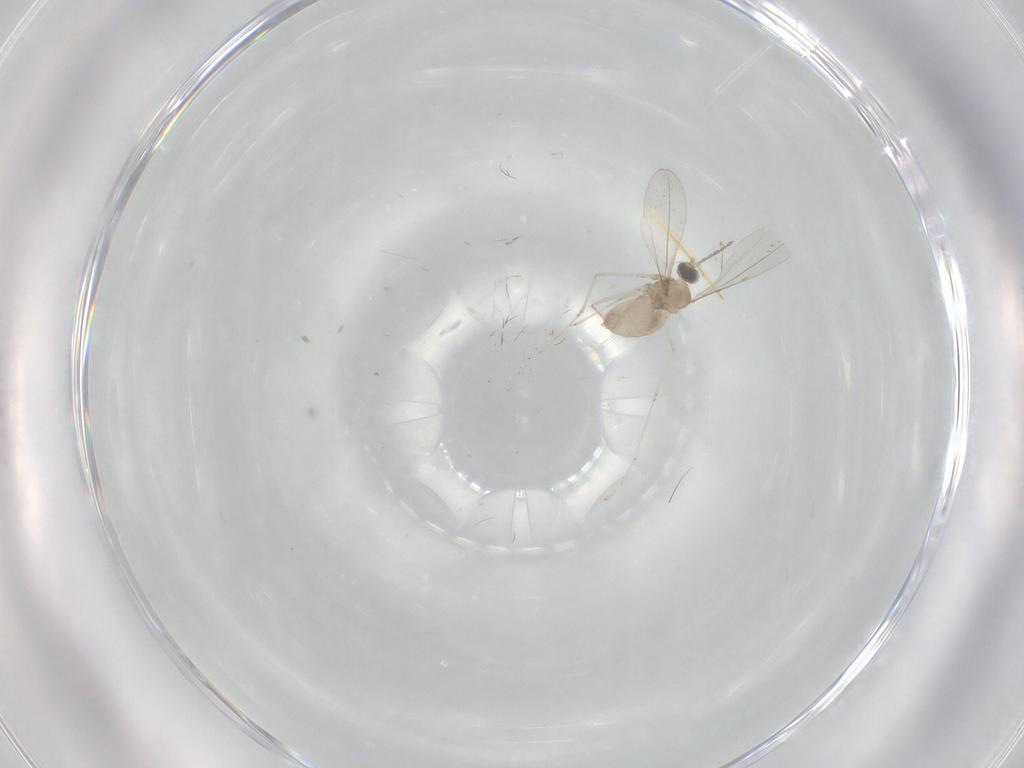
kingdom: Animalia
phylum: Arthropoda
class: Insecta
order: Diptera
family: Cecidomyiidae
